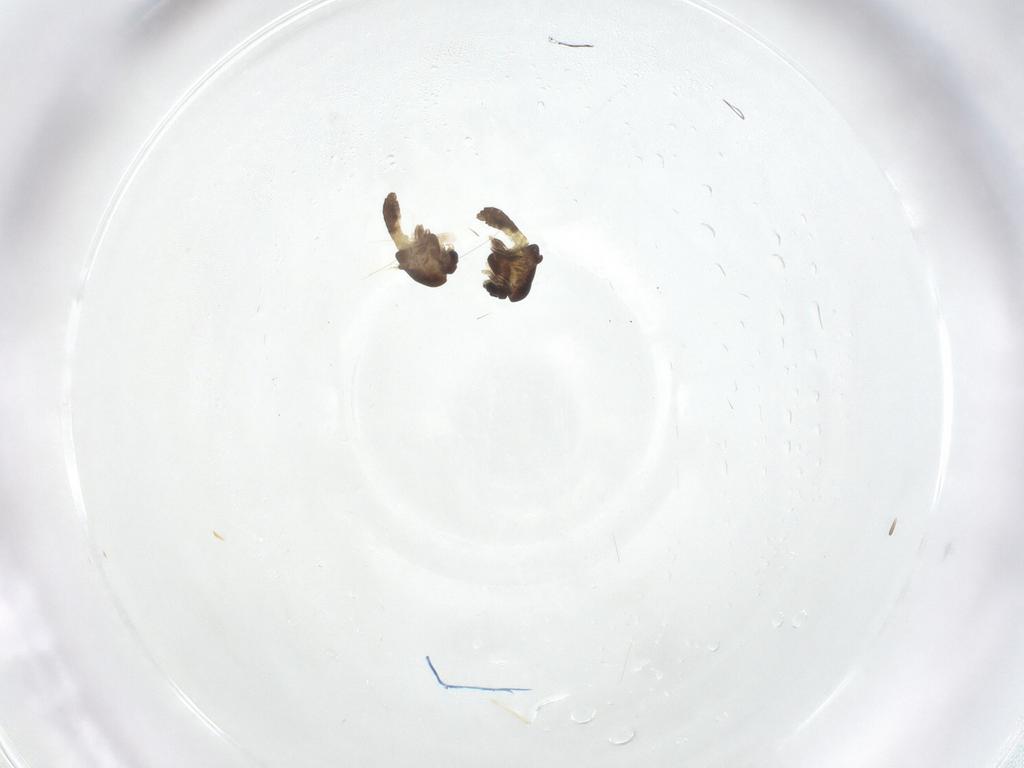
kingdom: Animalia
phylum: Arthropoda
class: Insecta
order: Diptera
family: Chironomidae
